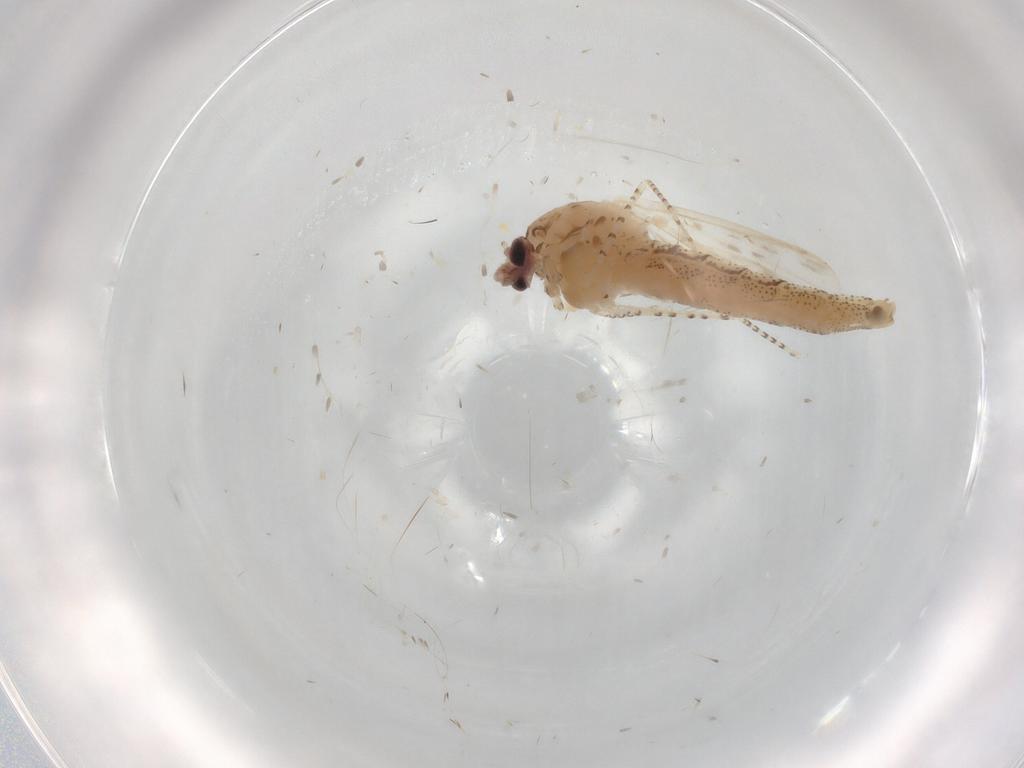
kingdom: Animalia
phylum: Arthropoda
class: Insecta
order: Diptera
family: Chaoboridae
